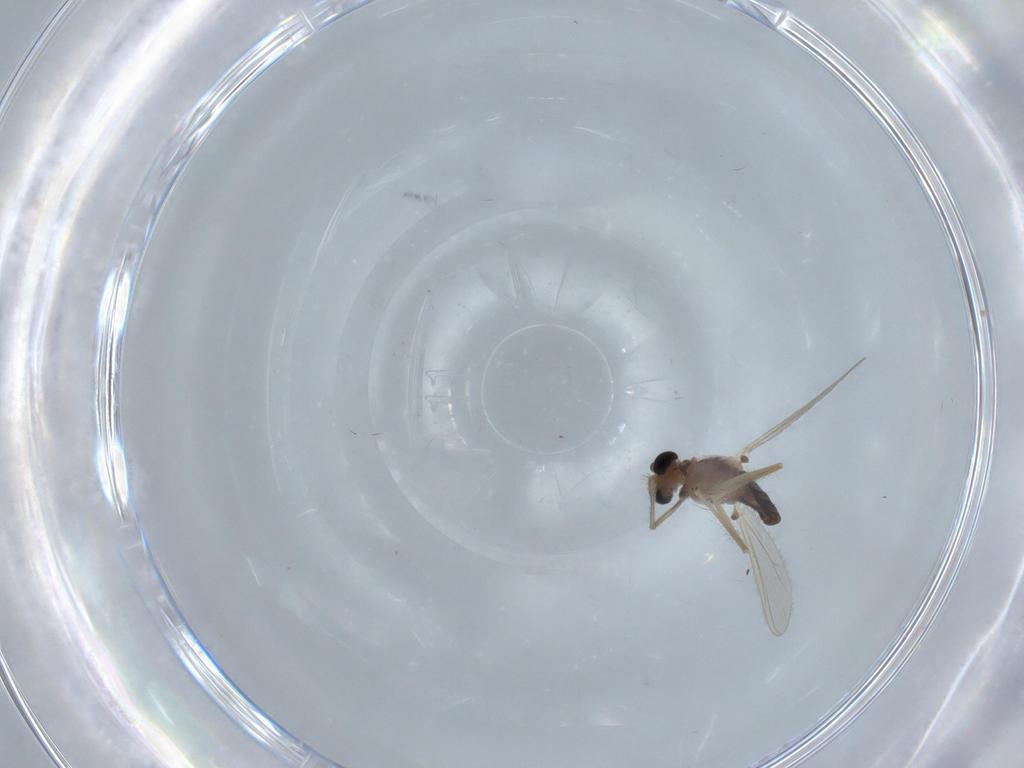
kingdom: Animalia
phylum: Arthropoda
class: Insecta
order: Diptera
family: Chironomidae
